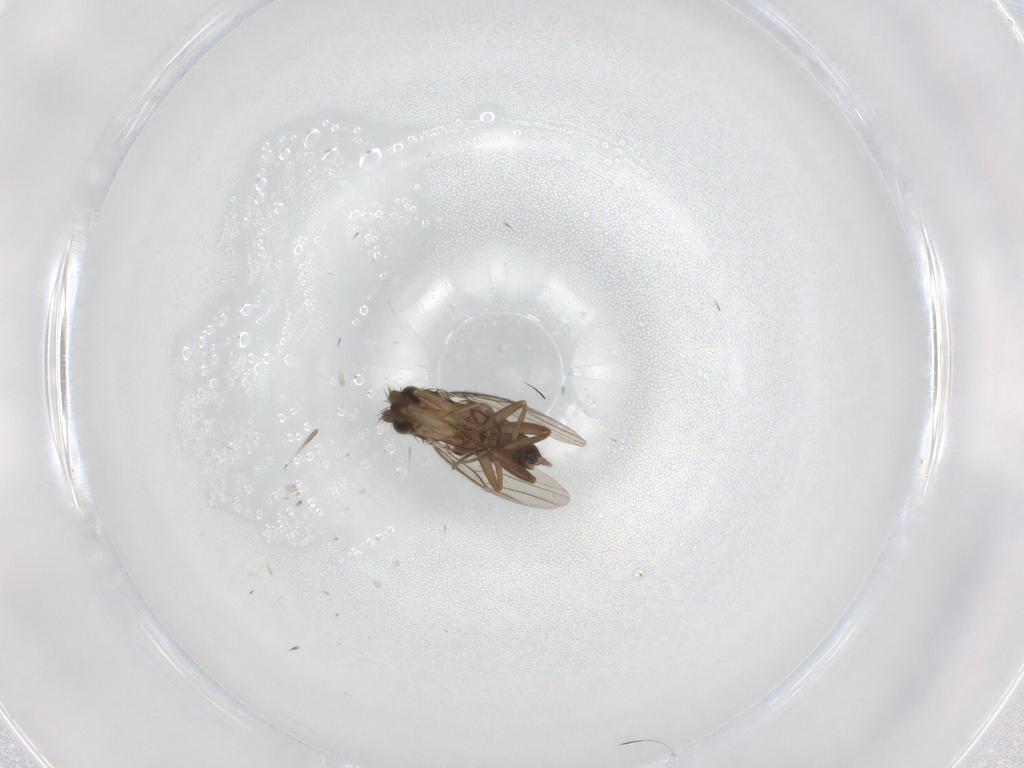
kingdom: Animalia
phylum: Arthropoda
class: Insecta
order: Diptera
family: Phoridae
